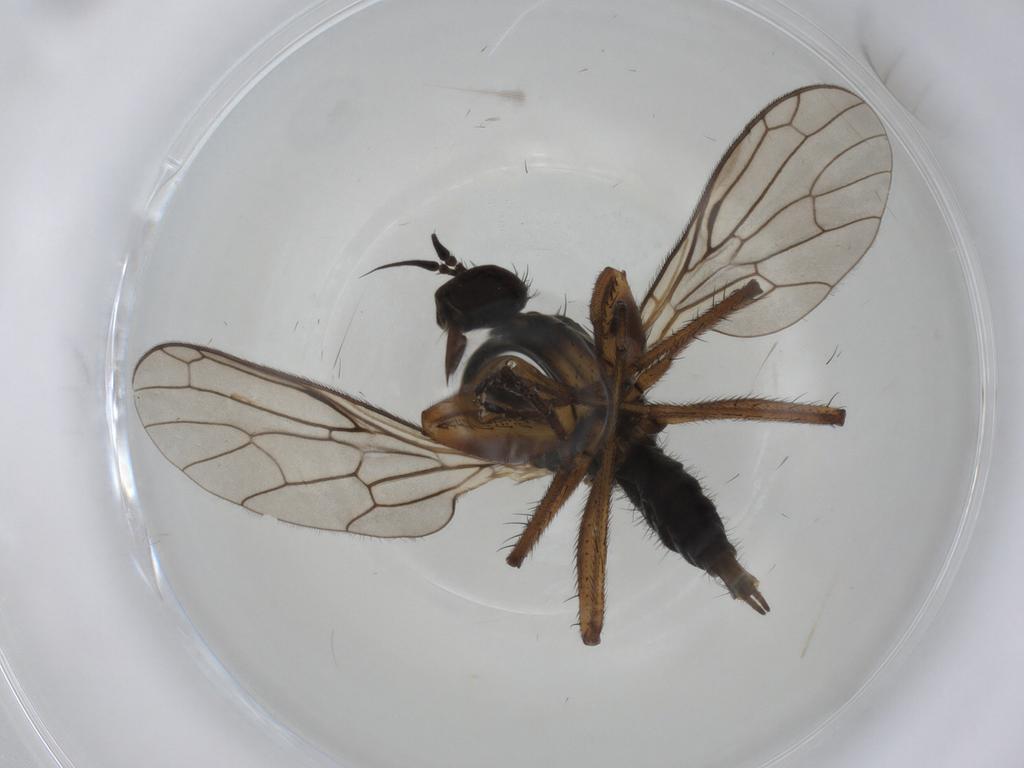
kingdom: Animalia
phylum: Arthropoda
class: Insecta
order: Diptera
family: Empididae
